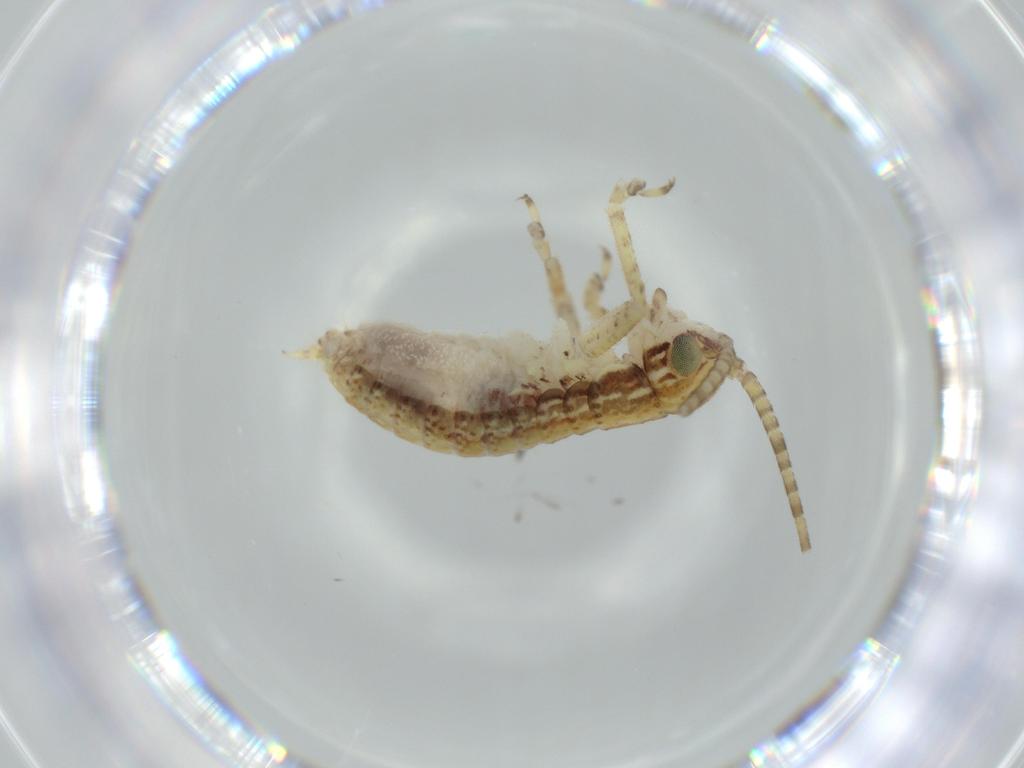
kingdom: Animalia
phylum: Arthropoda
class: Insecta
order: Orthoptera
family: Gryllidae
